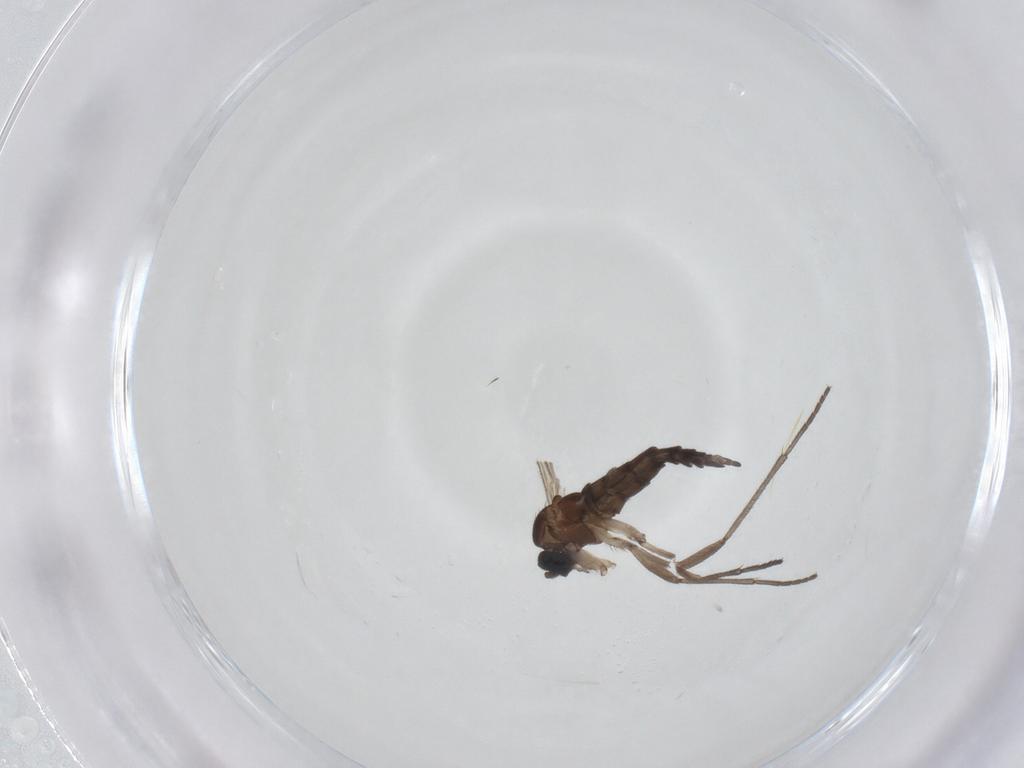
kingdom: Animalia
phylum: Arthropoda
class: Insecta
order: Diptera
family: Sciaridae
